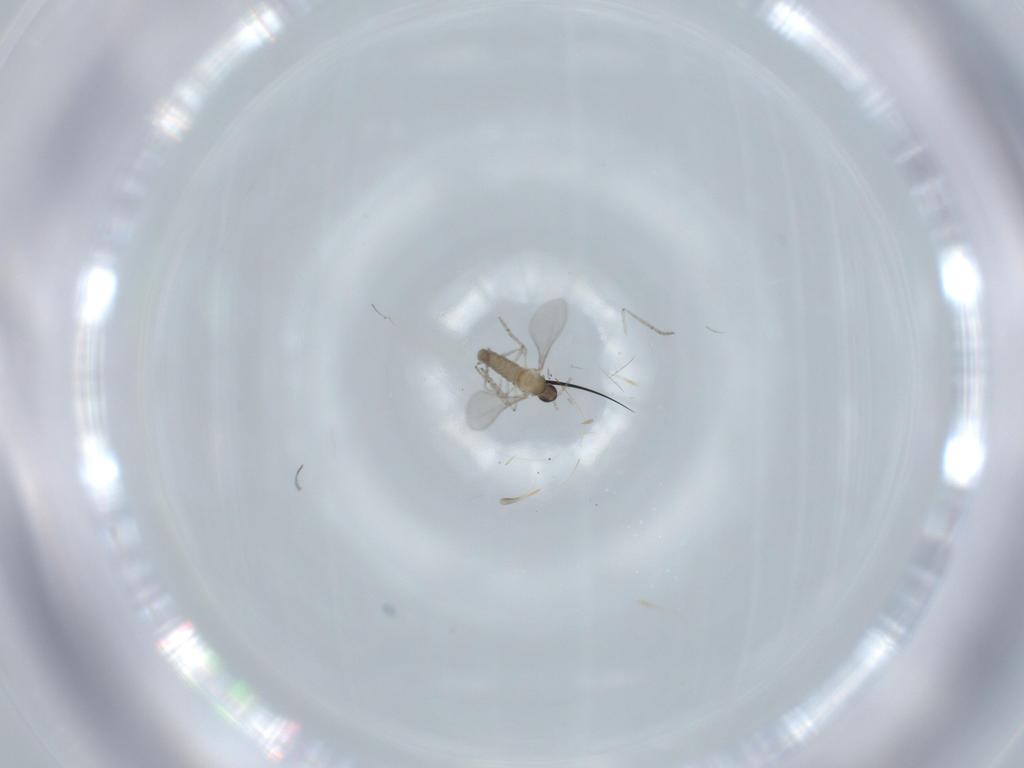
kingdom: Animalia
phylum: Arthropoda
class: Insecta
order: Diptera
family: Cecidomyiidae
